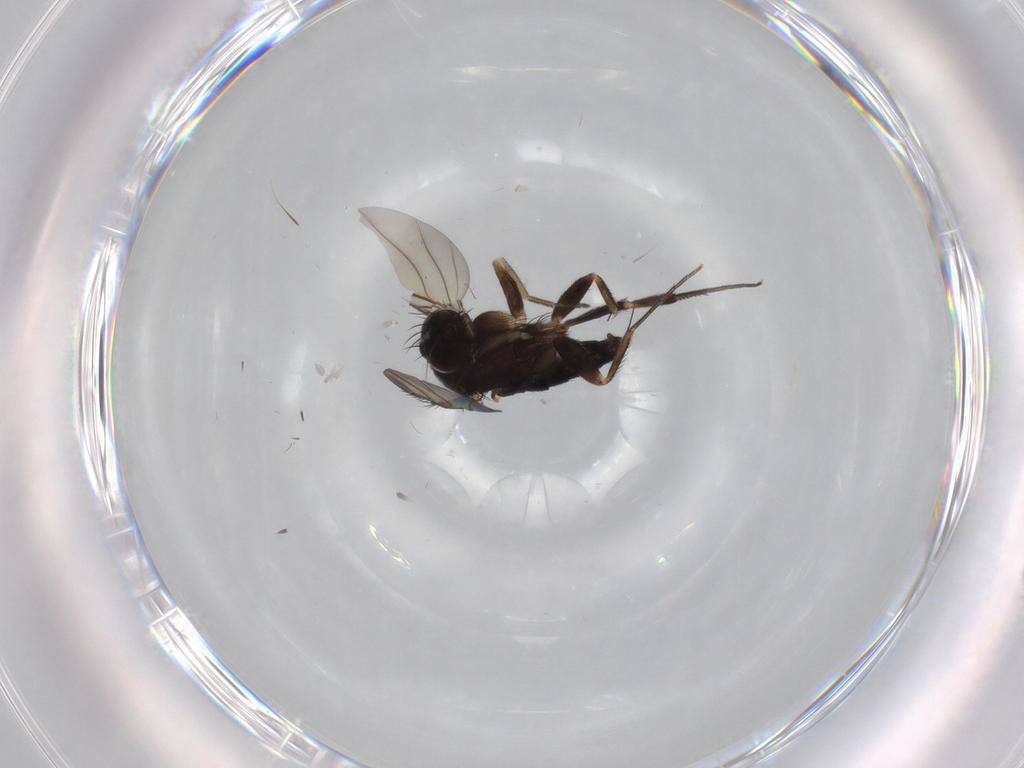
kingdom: Animalia
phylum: Arthropoda
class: Insecta
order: Diptera
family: Phoridae
